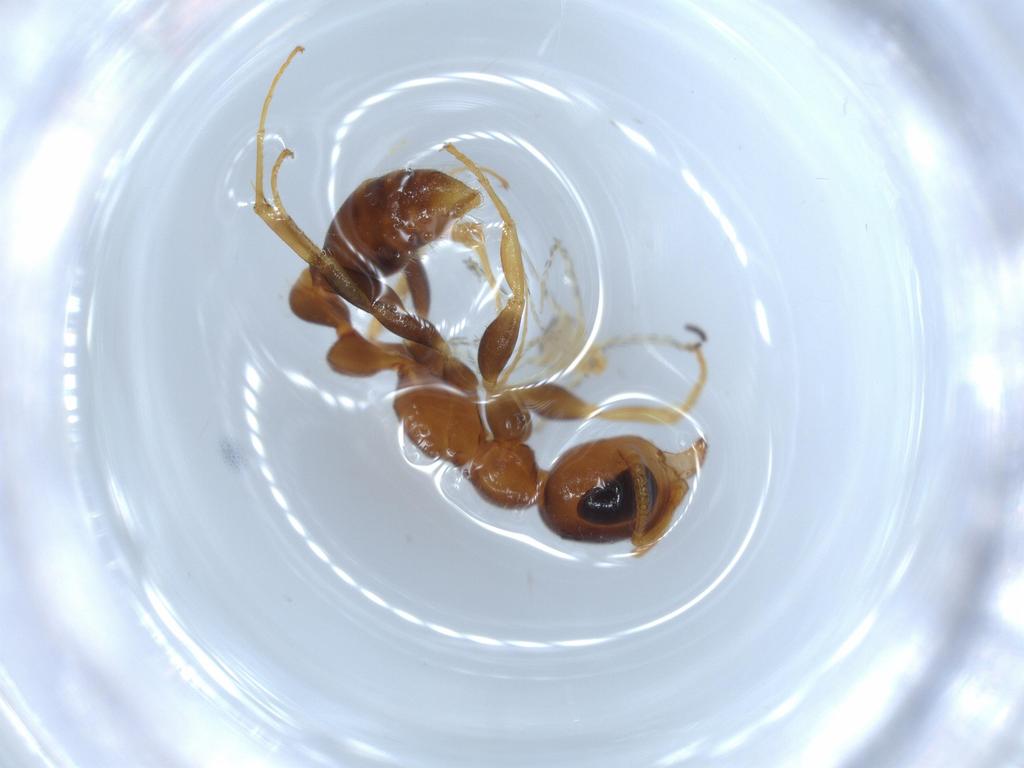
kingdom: Animalia
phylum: Arthropoda
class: Insecta
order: Hymenoptera
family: Formicidae
